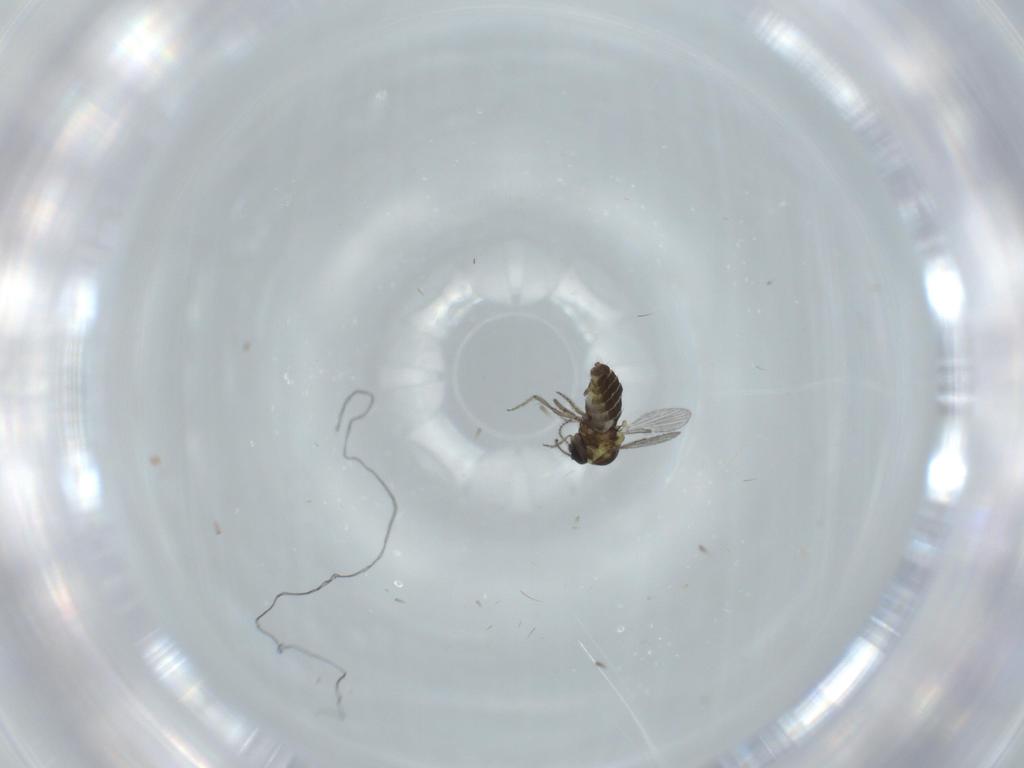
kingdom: Animalia
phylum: Arthropoda
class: Insecta
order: Diptera
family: Ceratopogonidae
